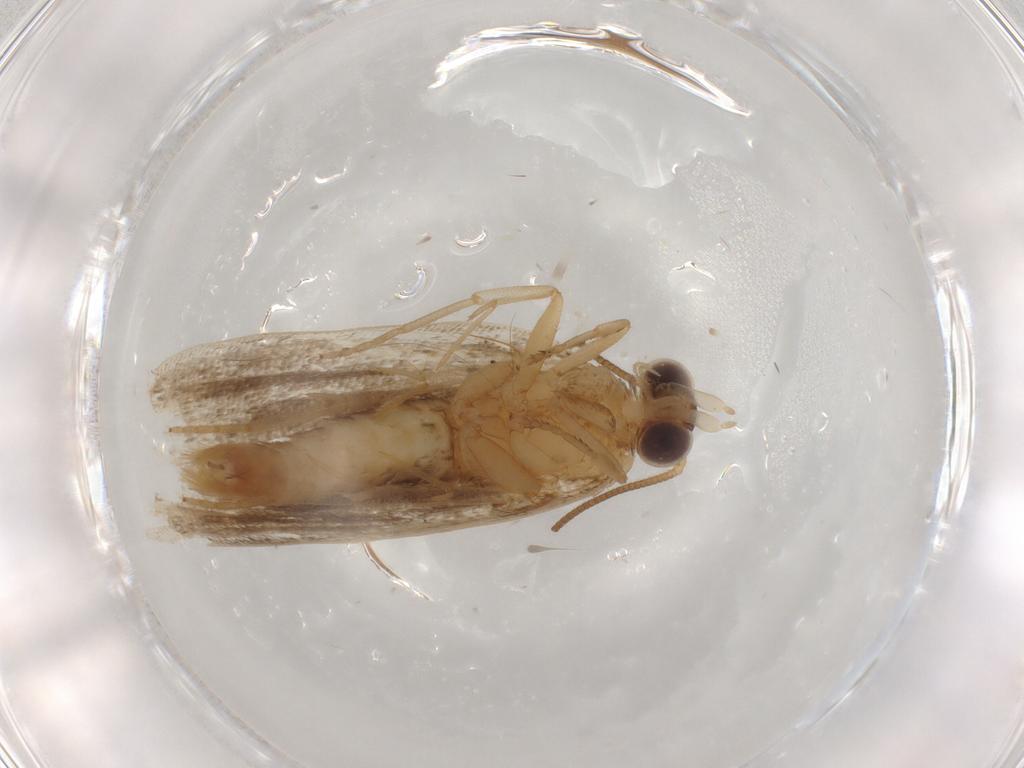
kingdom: Animalia
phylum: Arthropoda
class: Insecta
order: Lepidoptera
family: Tortricidae
